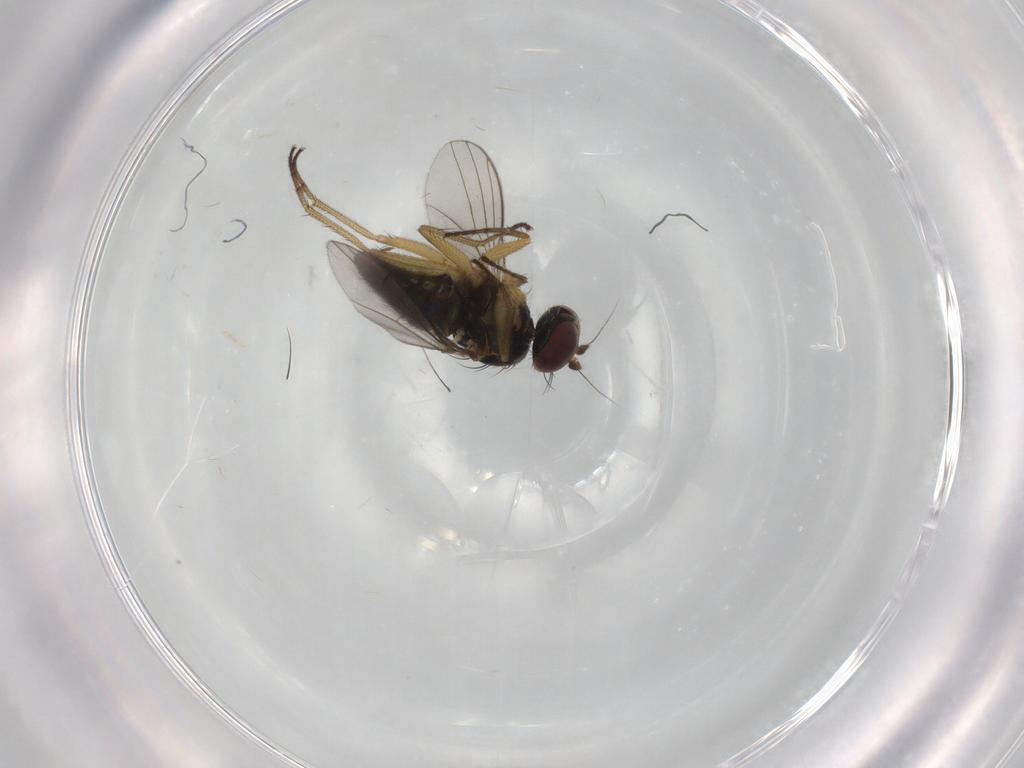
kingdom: Animalia
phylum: Arthropoda
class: Insecta
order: Diptera
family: Dolichopodidae
